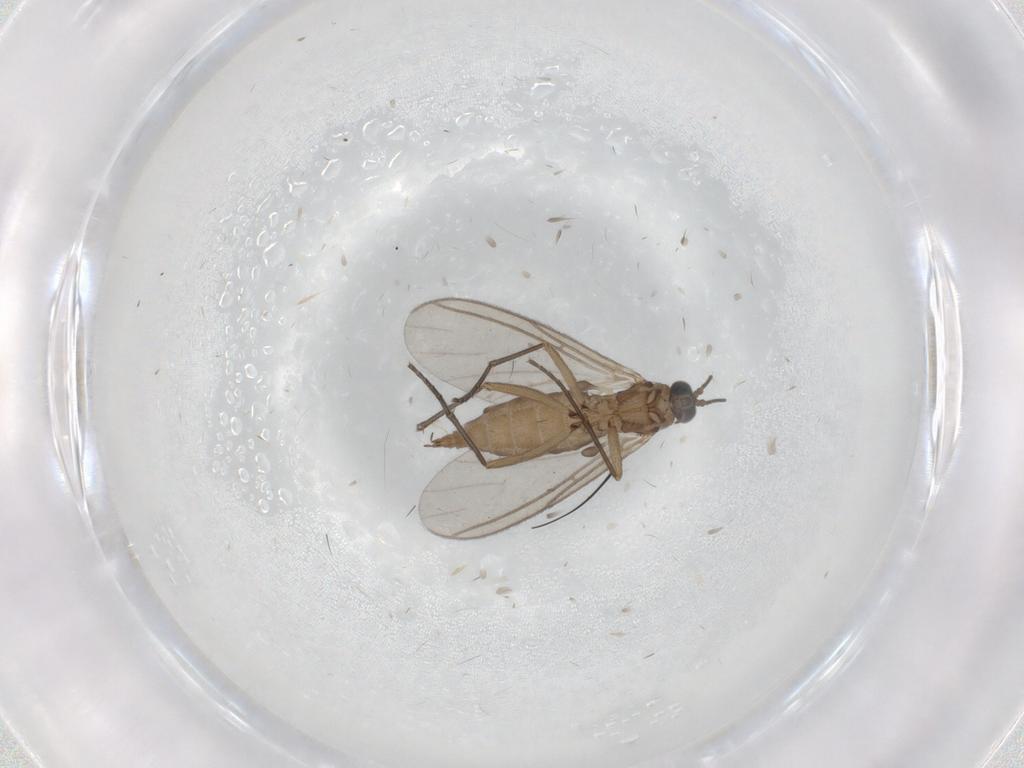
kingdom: Animalia
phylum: Arthropoda
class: Insecta
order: Diptera
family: Sciaridae
